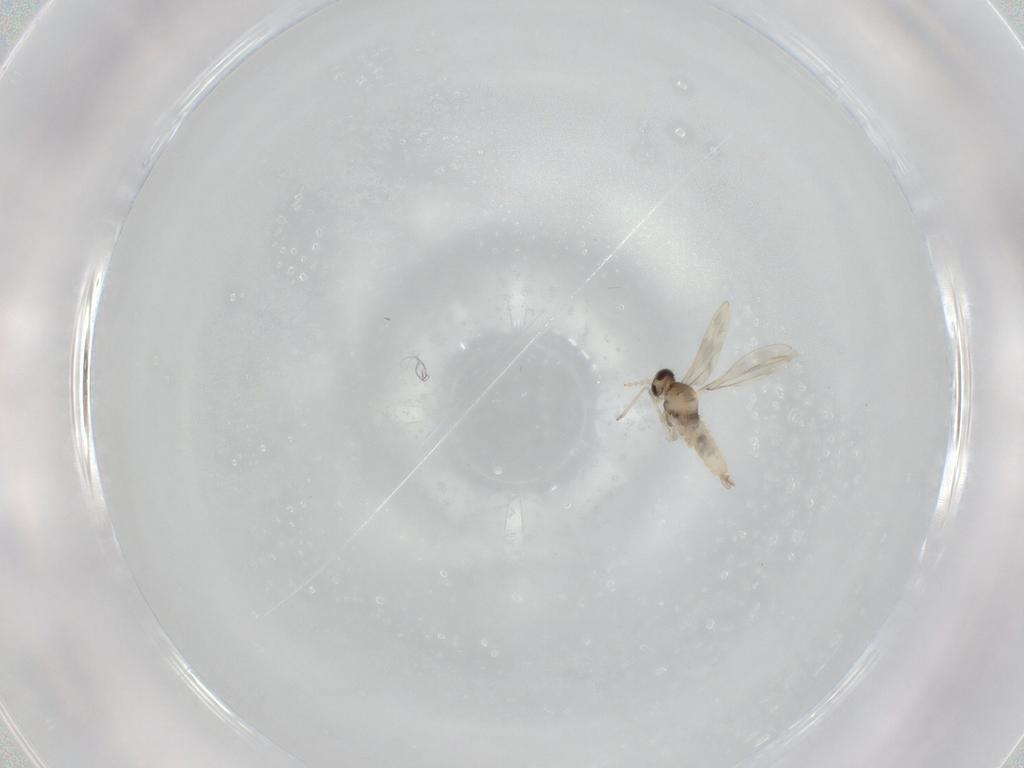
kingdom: Animalia
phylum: Arthropoda
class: Insecta
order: Diptera
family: Cecidomyiidae
